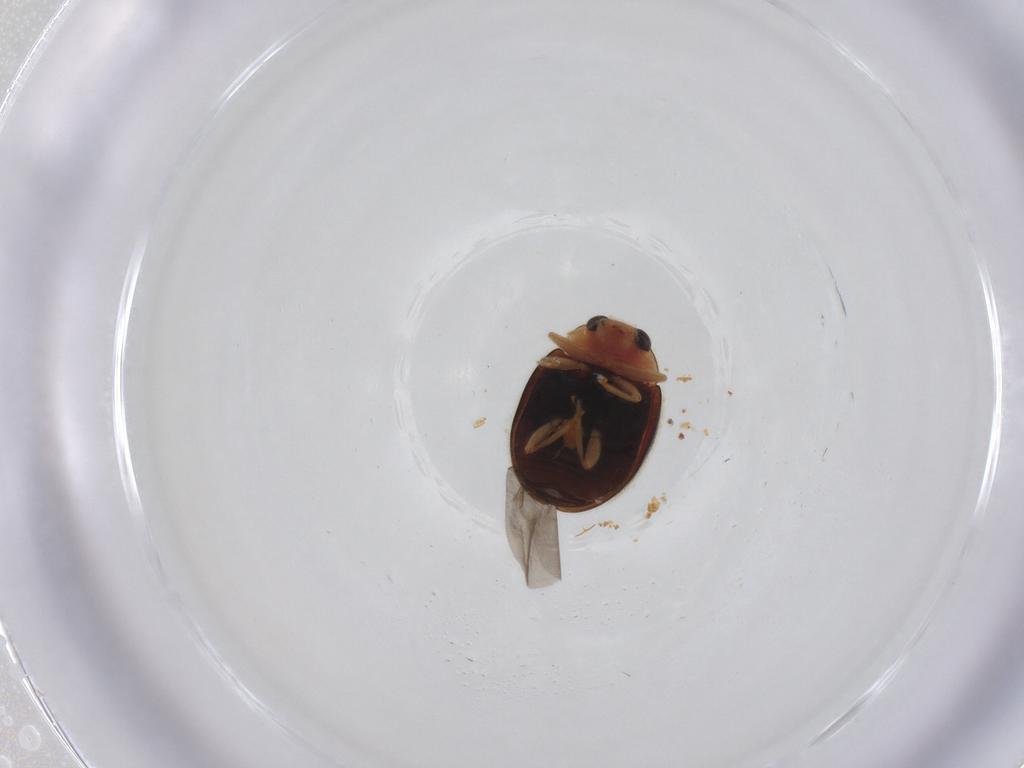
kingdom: Animalia
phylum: Arthropoda
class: Insecta
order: Coleoptera
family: Coccinellidae
